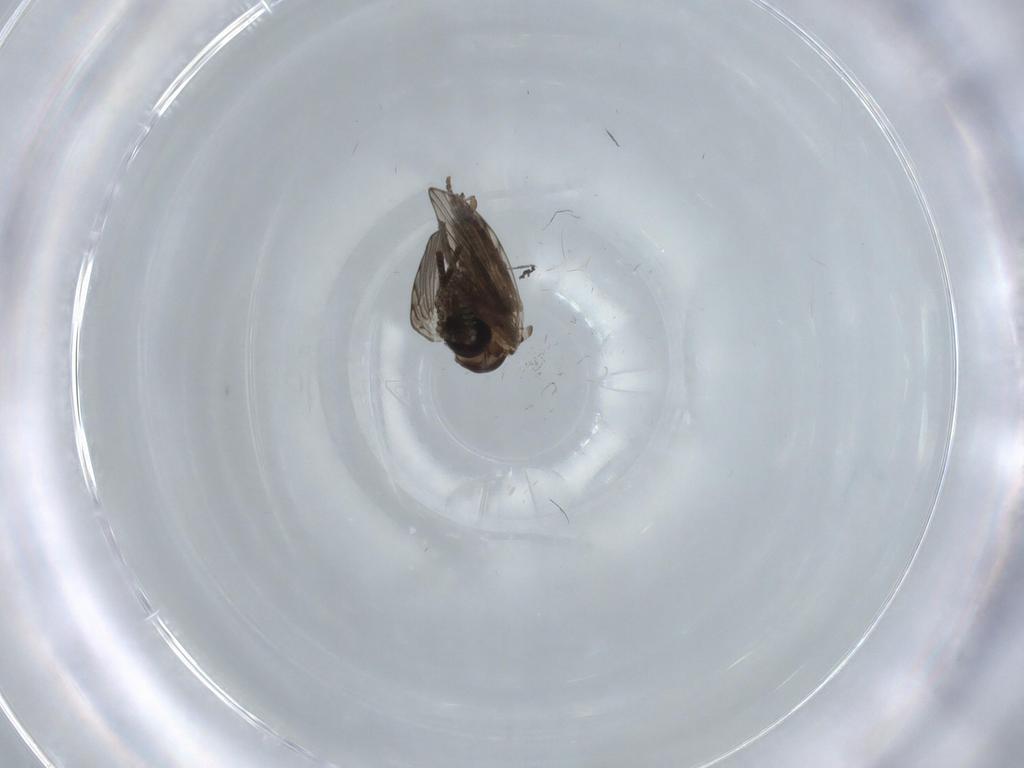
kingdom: Animalia
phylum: Arthropoda
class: Insecta
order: Diptera
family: Psychodidae
